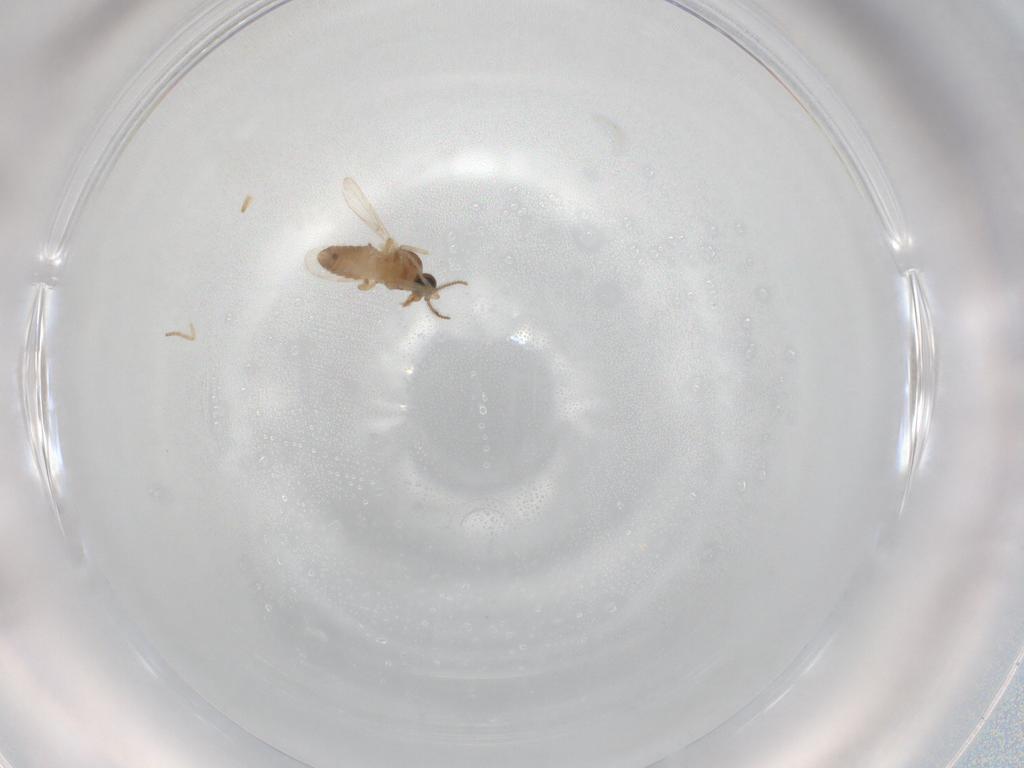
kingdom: Animalia
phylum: Arthropoda
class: Insecta
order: Diptera
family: Ceratopogonidae
